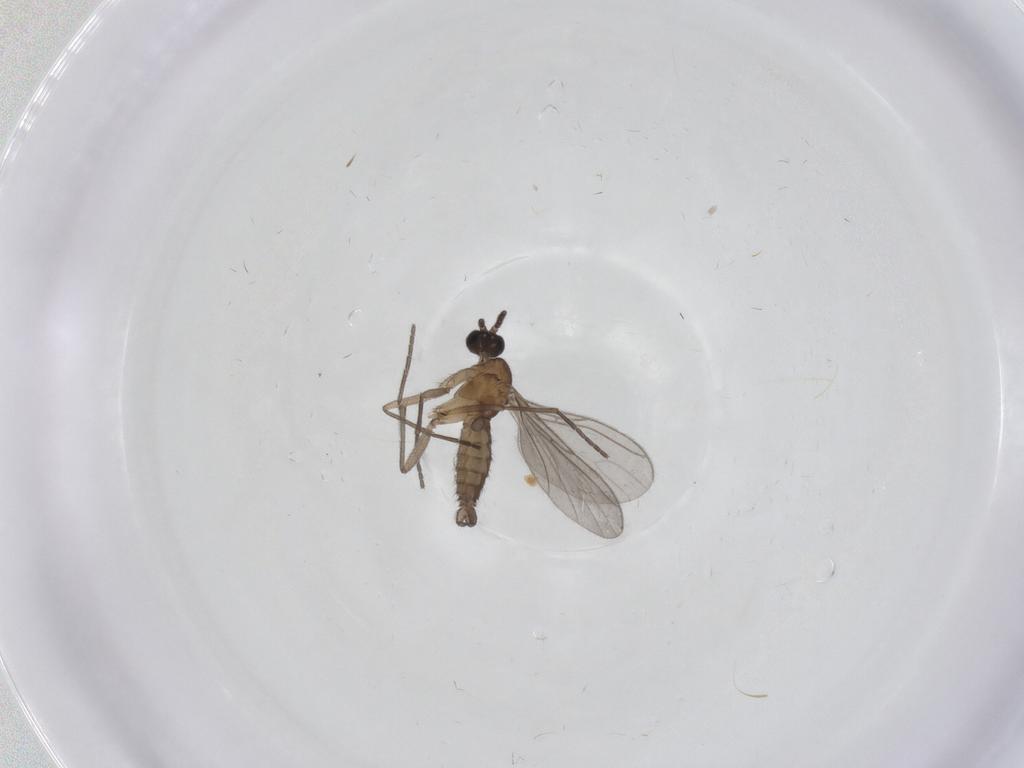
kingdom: Animalia
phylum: Arthropoda
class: Insecta
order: Diptera
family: Sciaridae
